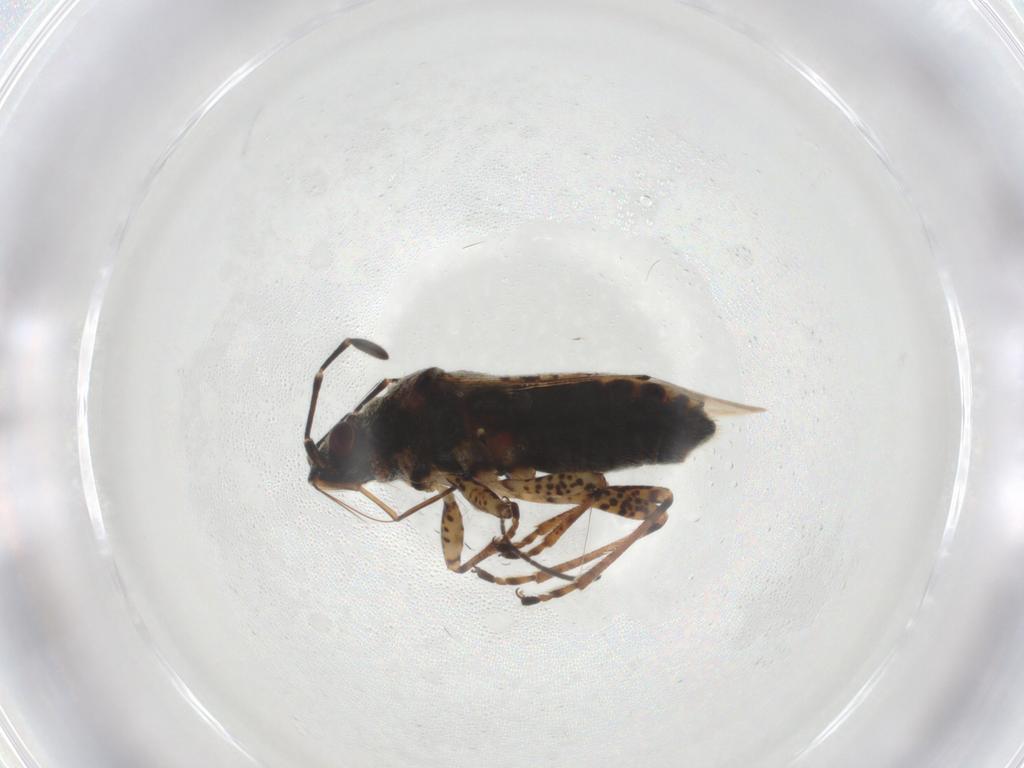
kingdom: Animalia
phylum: Arthropoda
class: Insecta
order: Hemiptera
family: Lygaeidae
